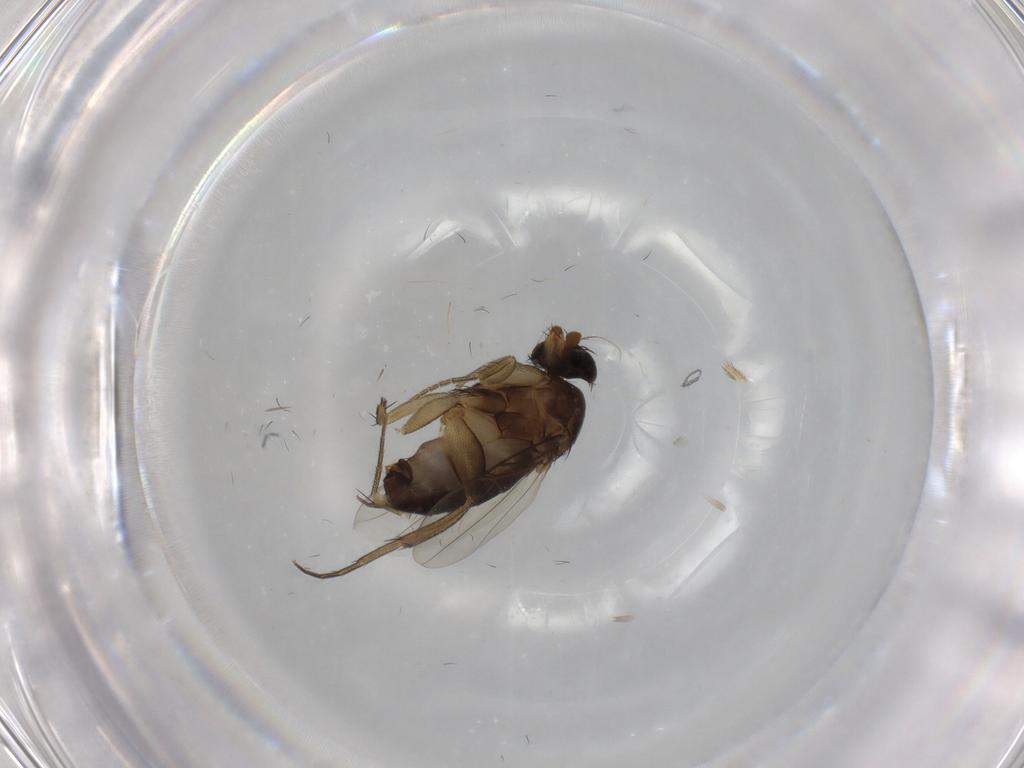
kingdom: Animalia
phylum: Arthropoda
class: Insecta
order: Diptera
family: Phoridae
